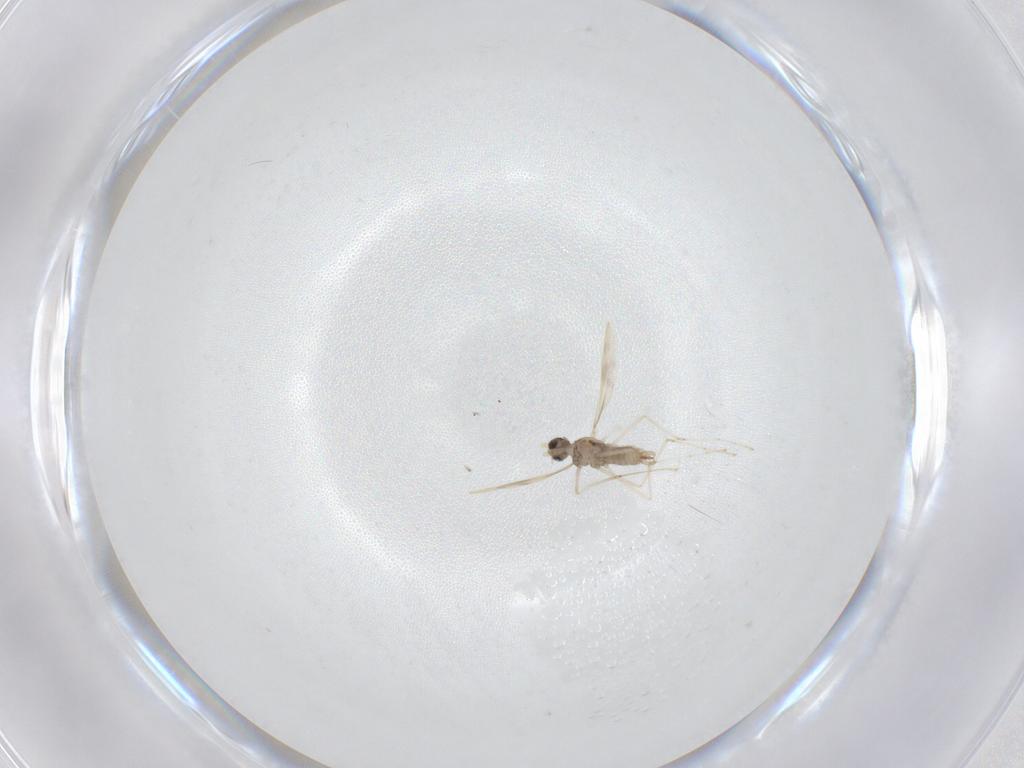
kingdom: Animalia
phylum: Arthropoda
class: Insecta
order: Diptera
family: Cecidomyiidae
